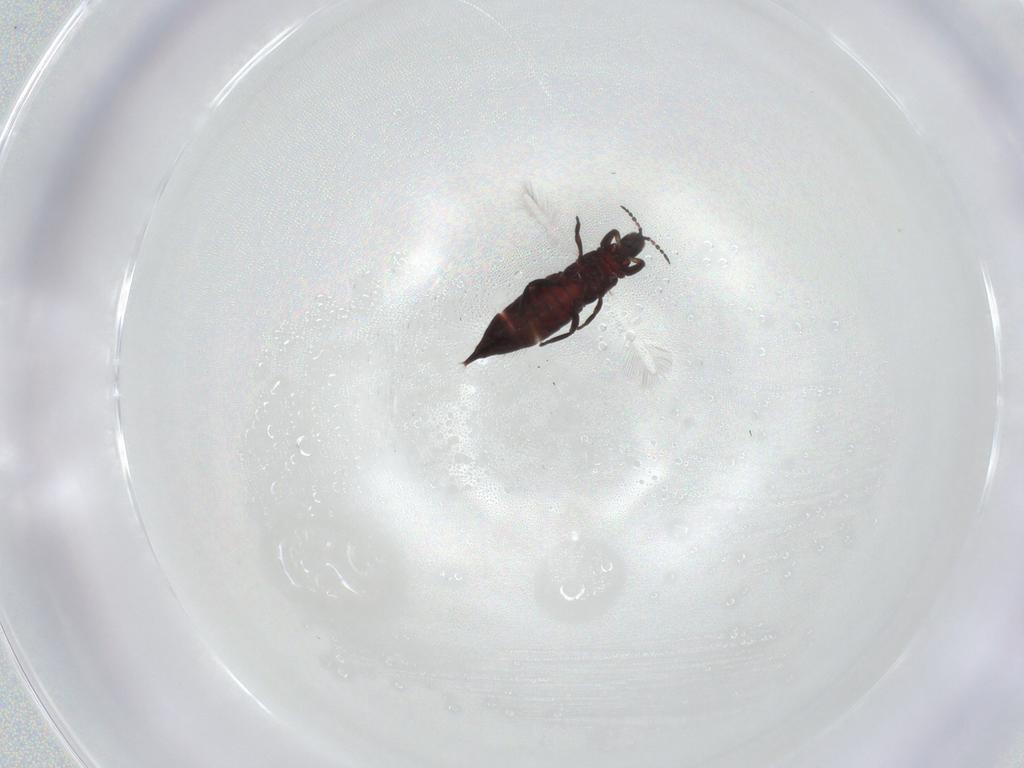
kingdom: Animalia
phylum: Arthropoda
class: Insecta
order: Thysanoptera
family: Phlaeothripidae
